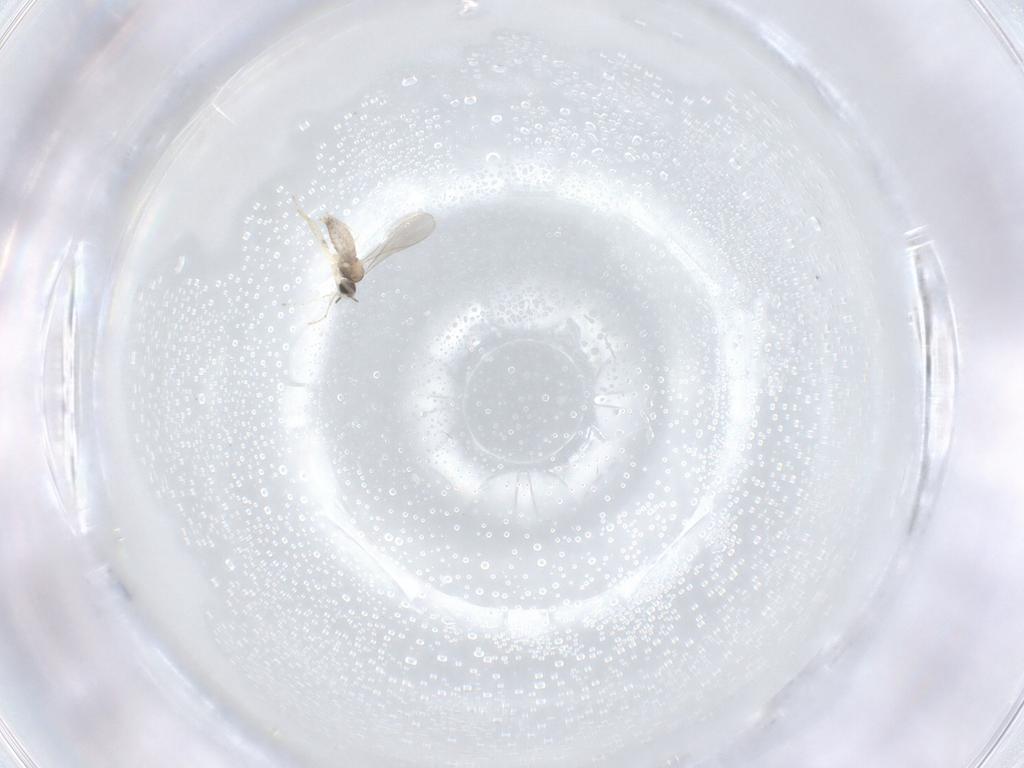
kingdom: Animalia
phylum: Arthropoda
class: Insecta
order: Diptera
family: Cecidomyiidae
